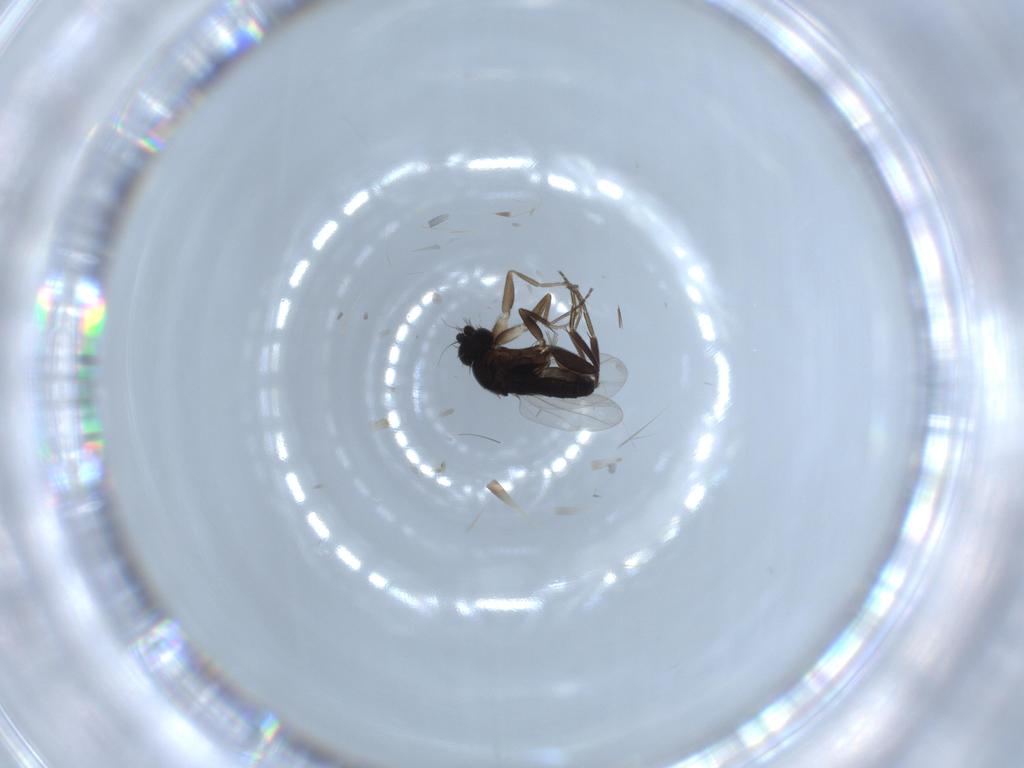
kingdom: Animalia
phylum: Arthropoda
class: Insecta
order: Diptera
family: Phoridae
